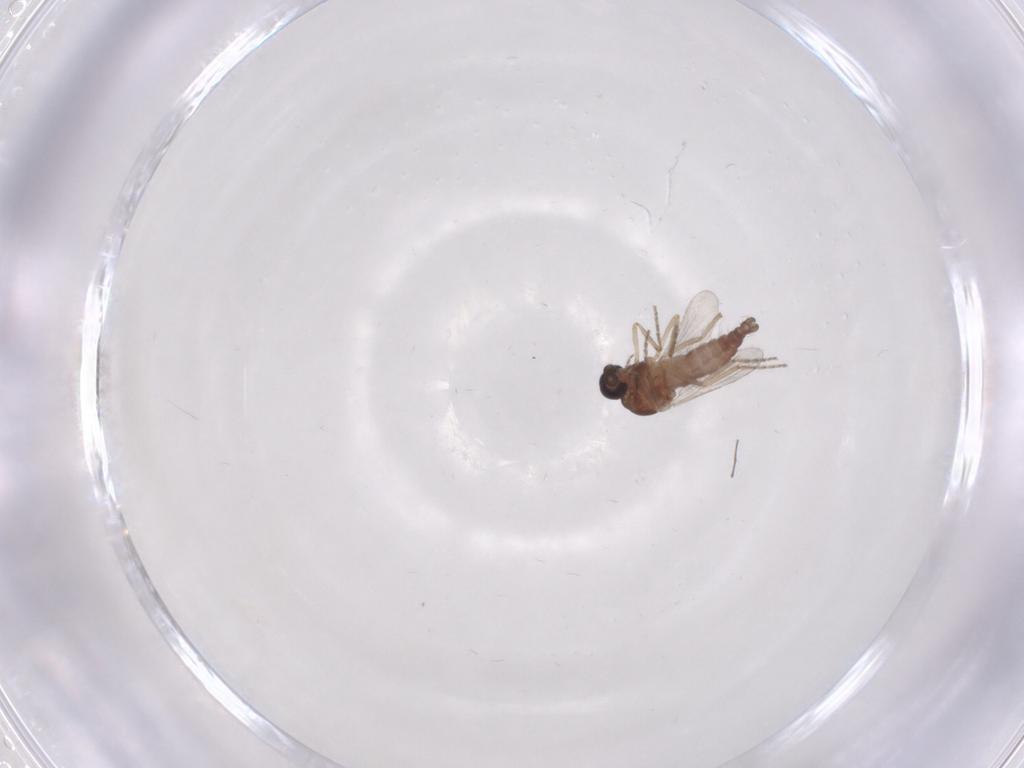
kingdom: Animalia
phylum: Arthropoda
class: Insecta
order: Diptera
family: Ceratopogonidae
